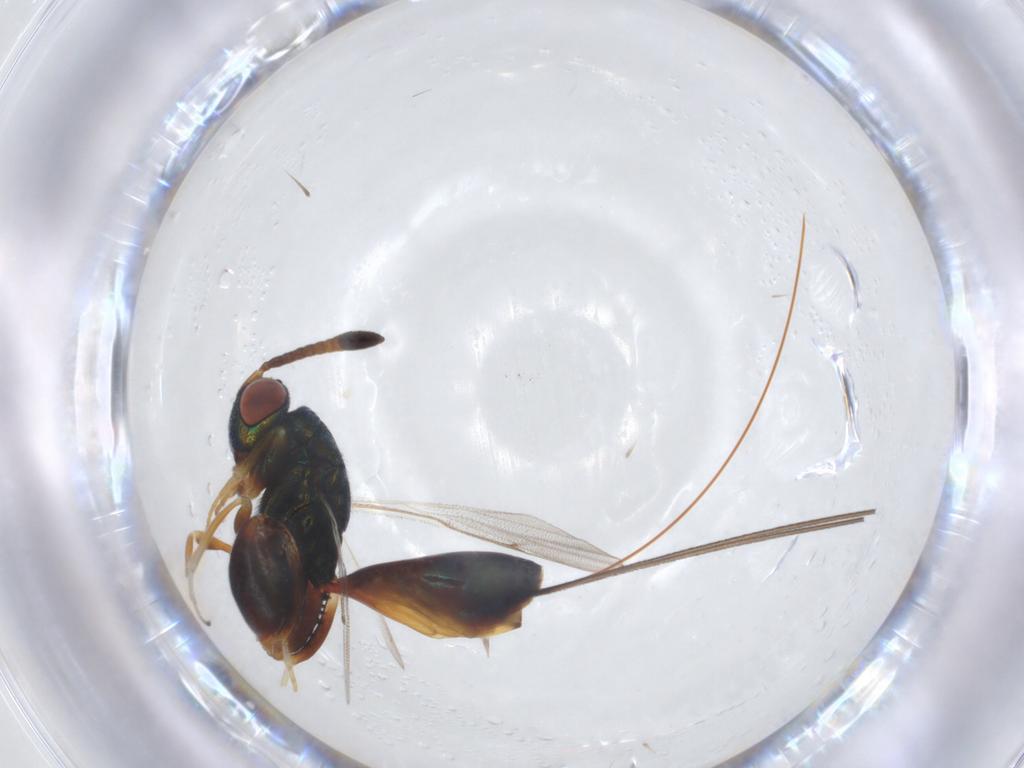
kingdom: Animalia
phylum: Arthropoda
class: Insecta
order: Hymenoptera
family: Torymidae
